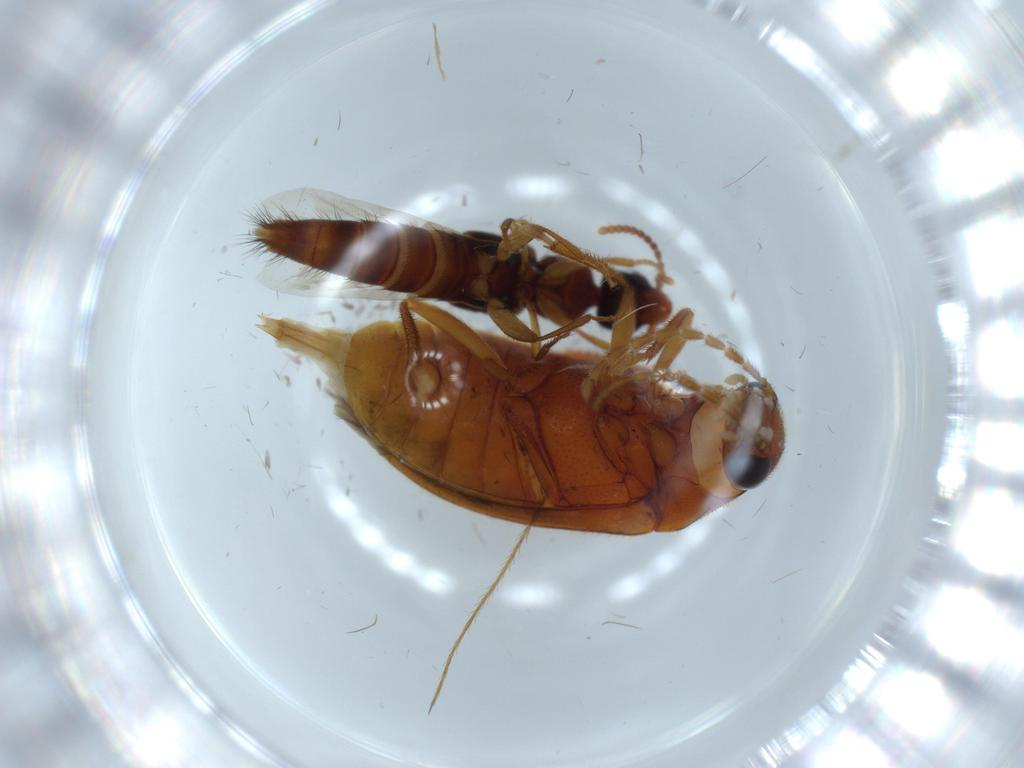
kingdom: Animalia
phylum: Arthropoda
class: Insecta
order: Coleoptera
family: Staphylinidae
